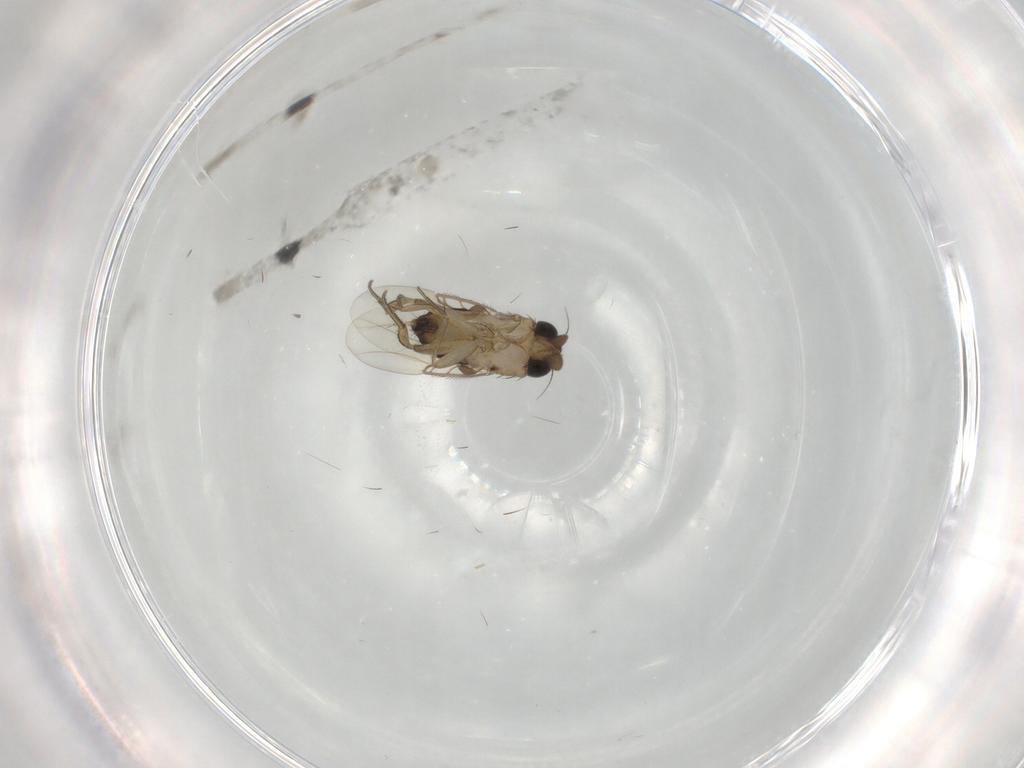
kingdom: Animalia
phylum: Arthropoda
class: Insecta
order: Diptera
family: Phoridae
